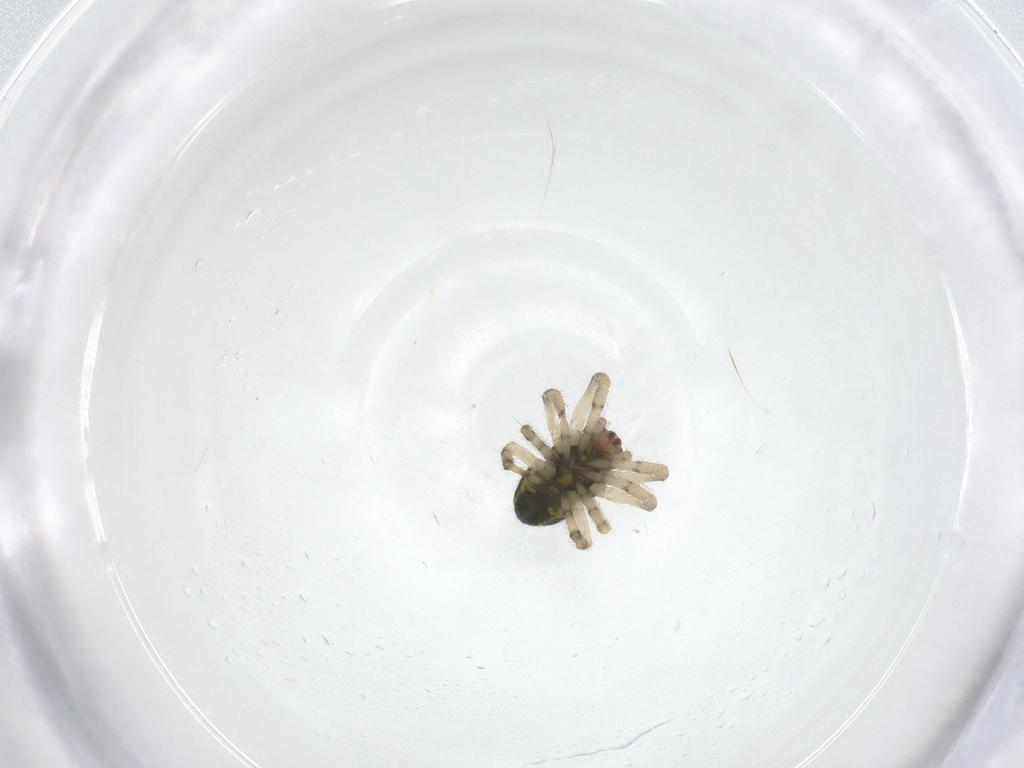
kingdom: Animalia
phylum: Arthropoda
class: Arachnida
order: Araneae
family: Araneidae
